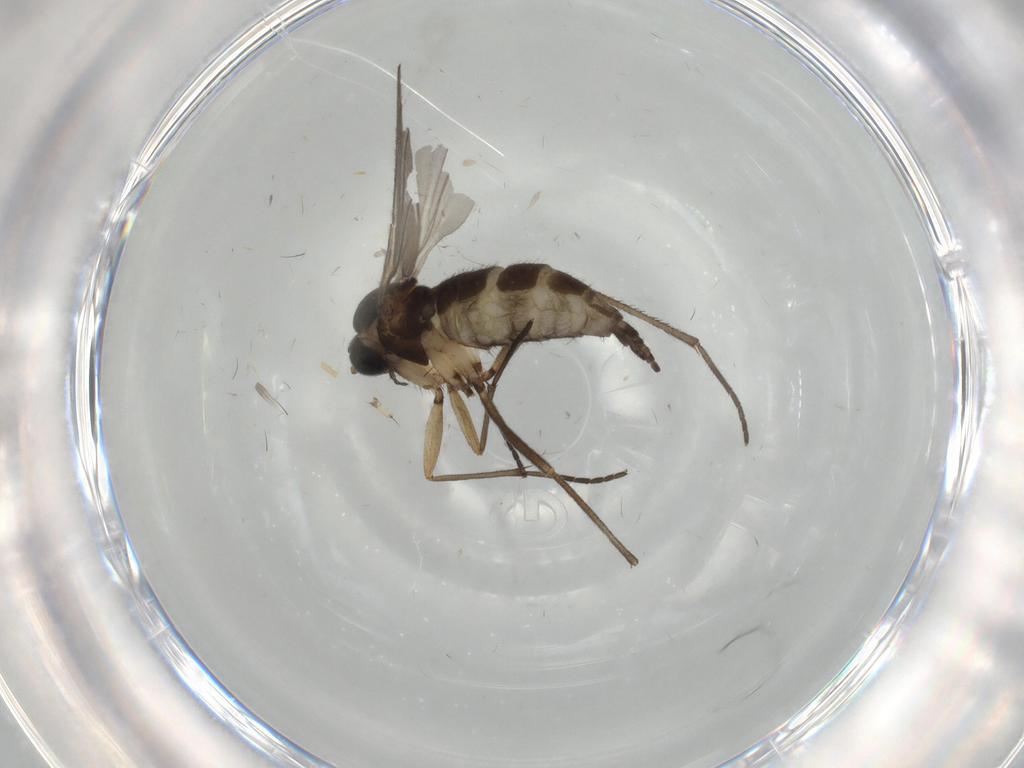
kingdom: Animalia
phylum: Arthropoda
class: Insecta
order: Diptera
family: Sciaridae
